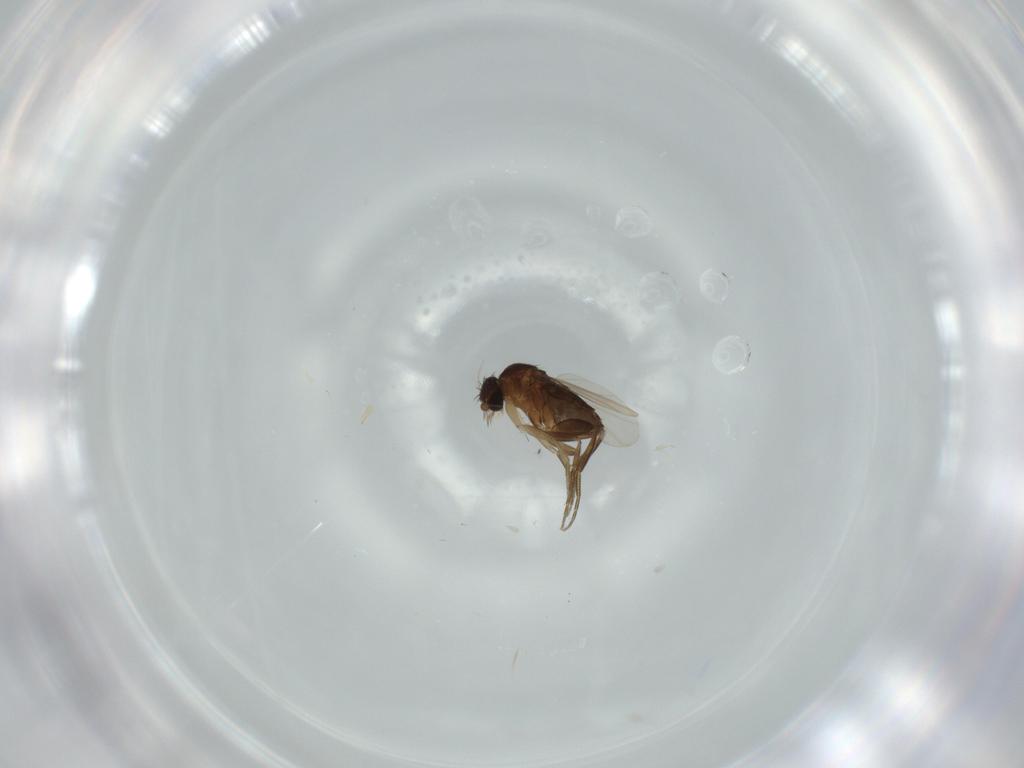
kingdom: Animalia
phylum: Arthropoda
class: Insecta
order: Diptera
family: Phoridae
